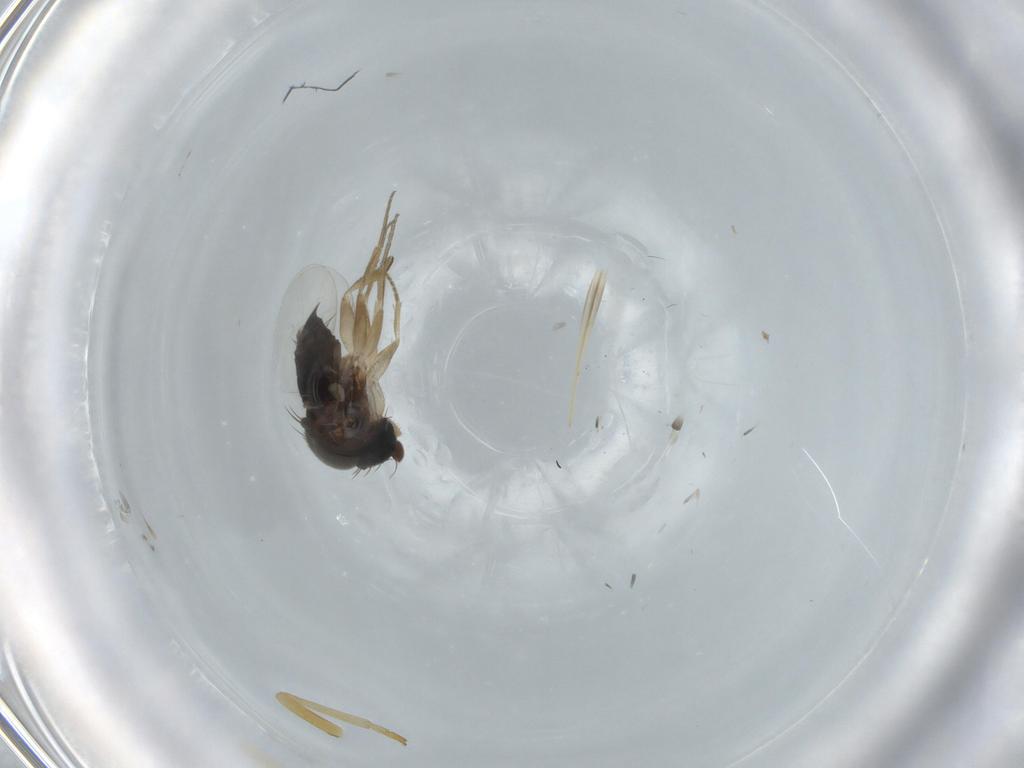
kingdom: Animalia
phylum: Arthropoda
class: Insecta
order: Diptera
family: Phoridae
